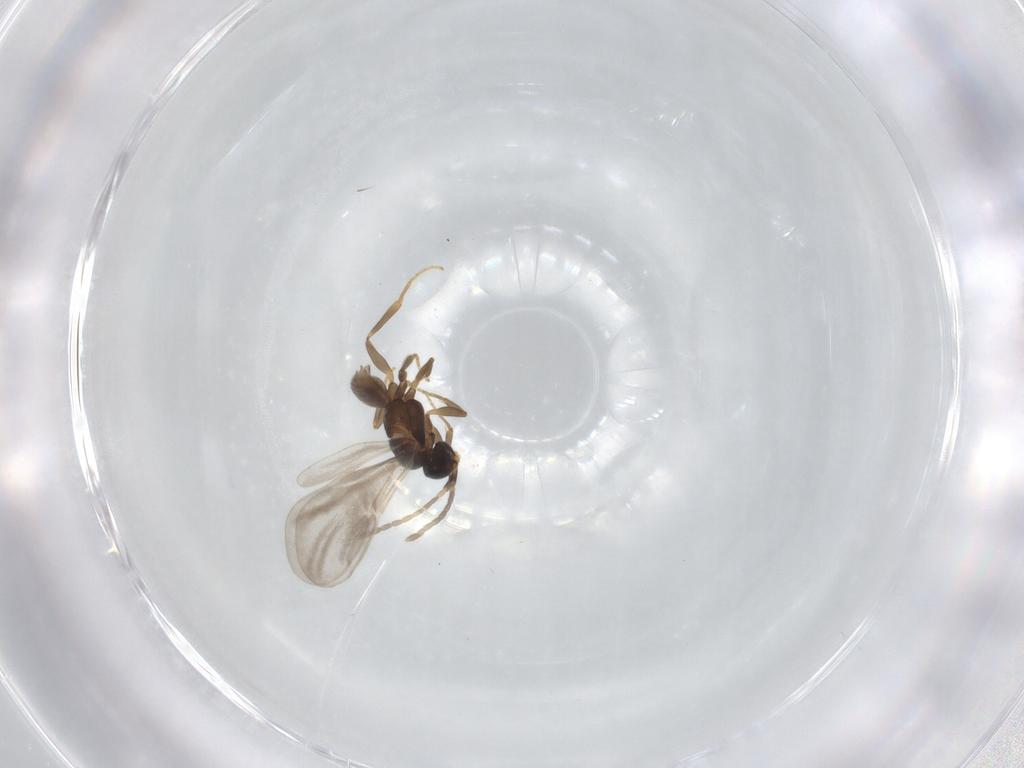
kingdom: Animalia
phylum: Arthropoda
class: Insecta
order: Hymenoptera
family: Dryinidae
